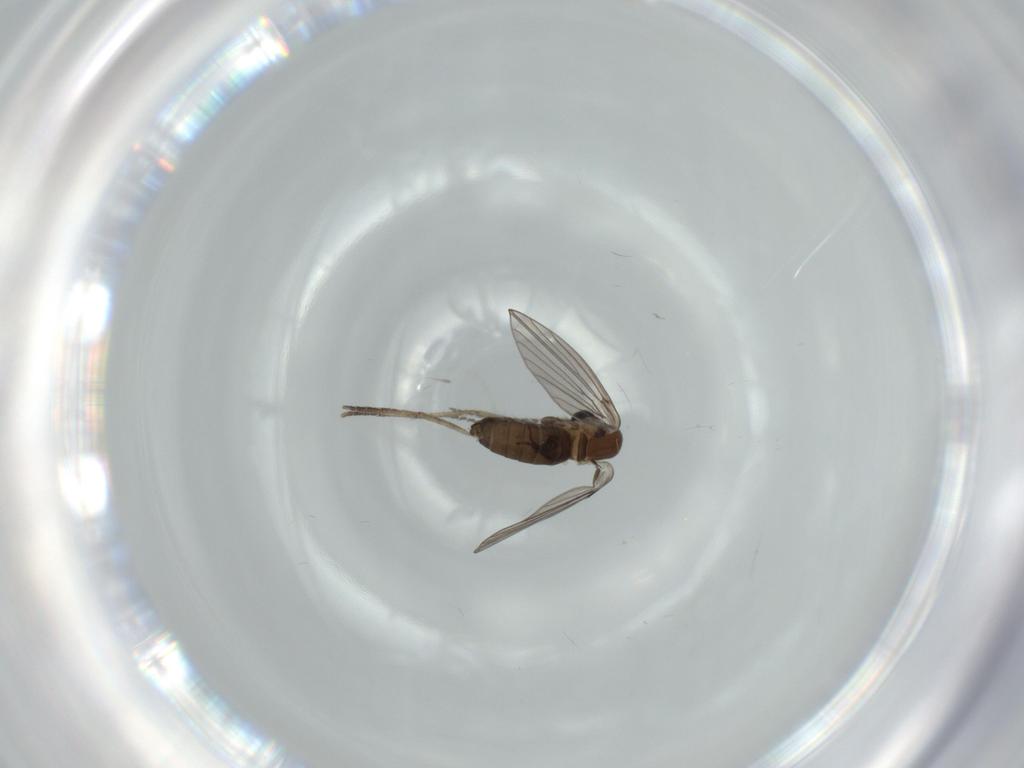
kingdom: Animalia
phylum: Arthropoda
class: Insecta
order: Diptera
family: Psychodidae
